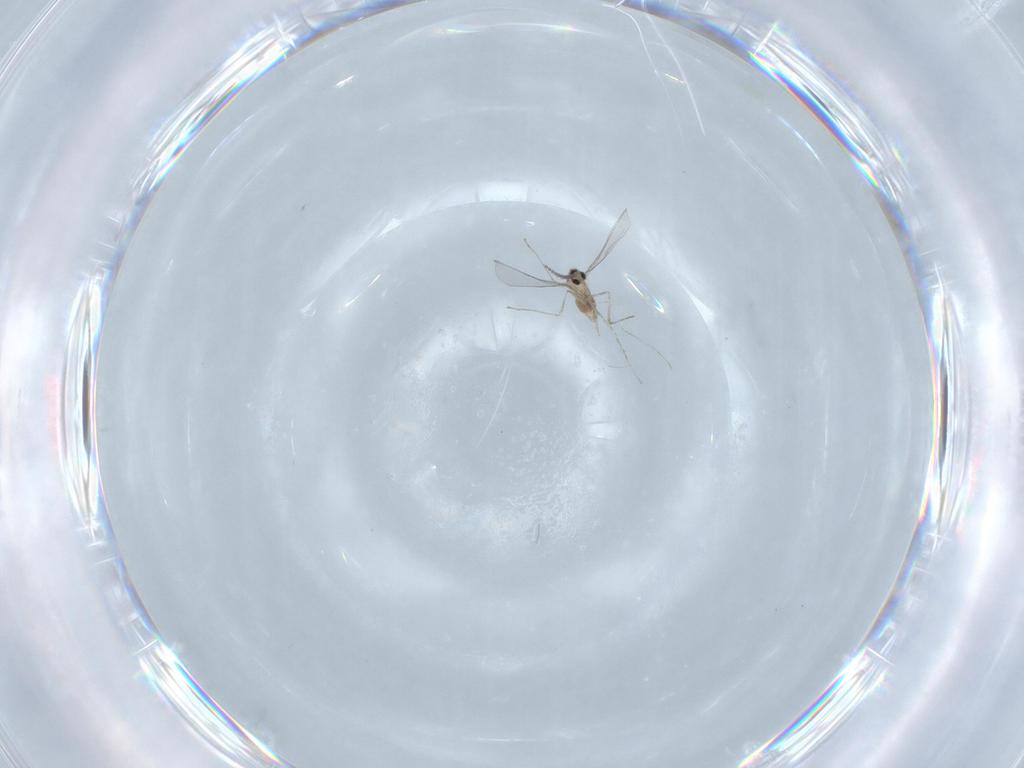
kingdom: Animalia
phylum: Arthropoda
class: Insecta
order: Diptera
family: Cecidomyiidae
